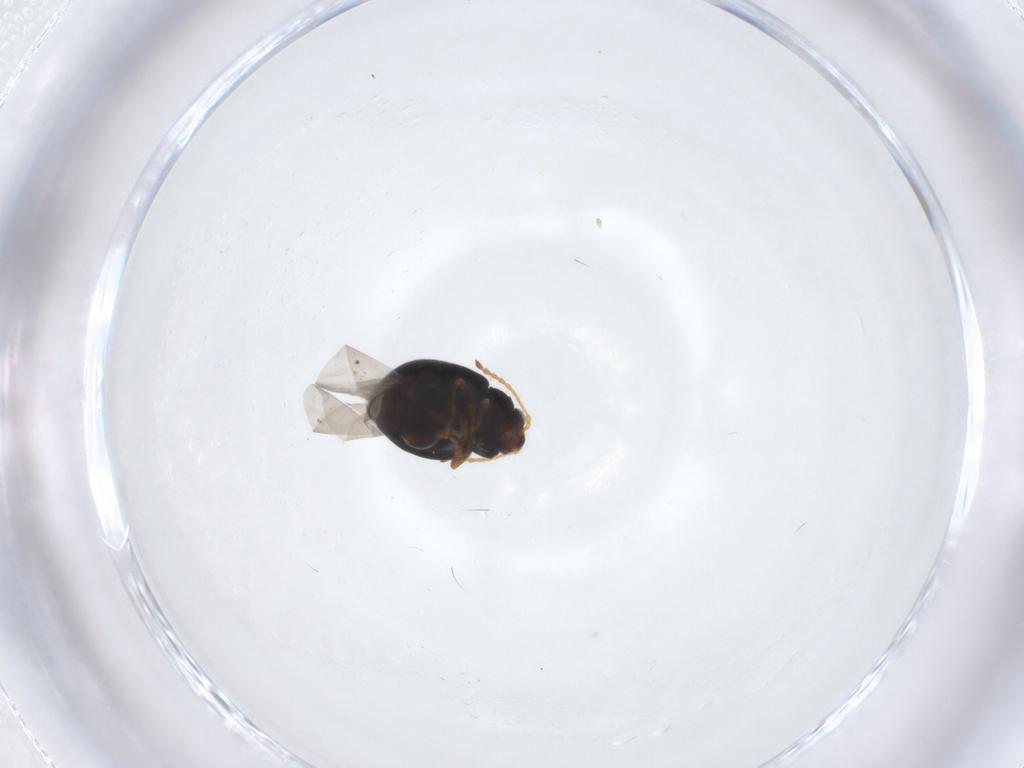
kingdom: Animalia
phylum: Arthropoda
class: Insecta
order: Coleoptera
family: Chrysomelidae
